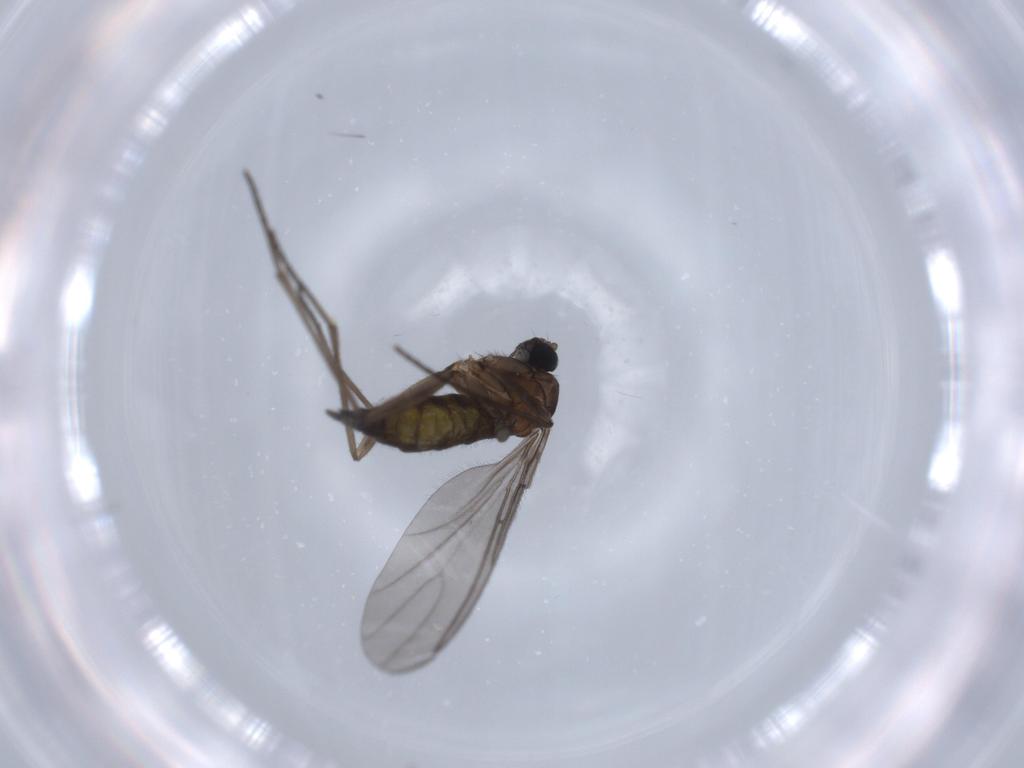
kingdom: Animalia
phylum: Arthropoda
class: Insecta
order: Diptera
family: Sciaridae
